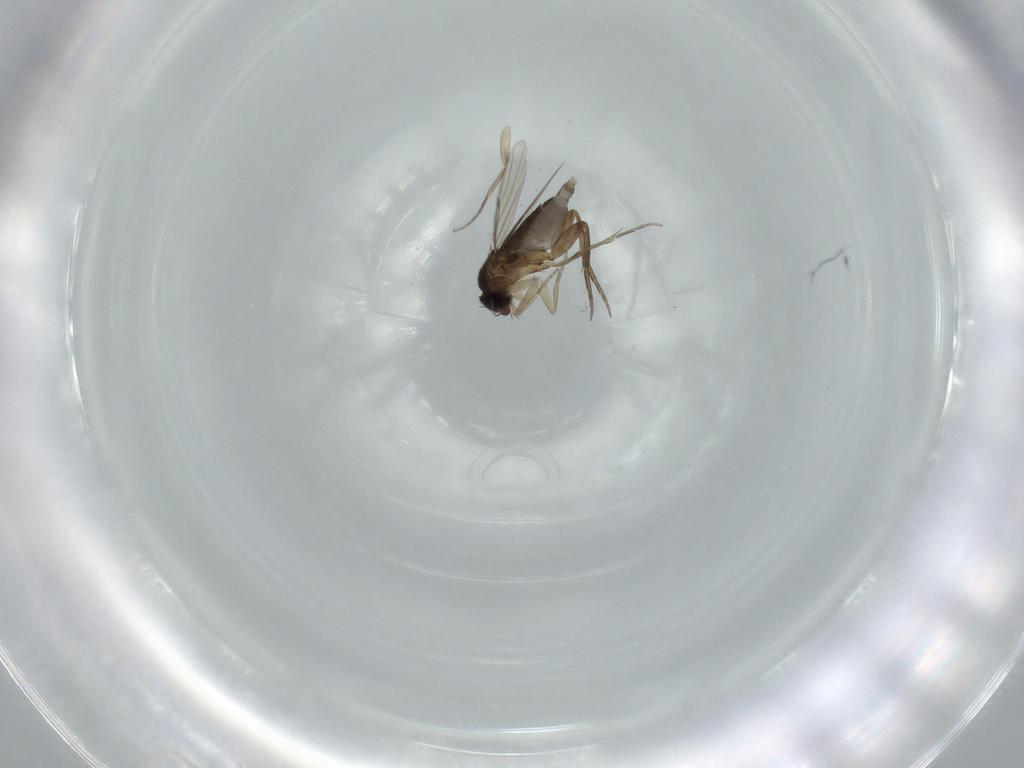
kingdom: Animalia
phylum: Arthropoda
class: Insecta
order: Diptera
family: Phoridae
